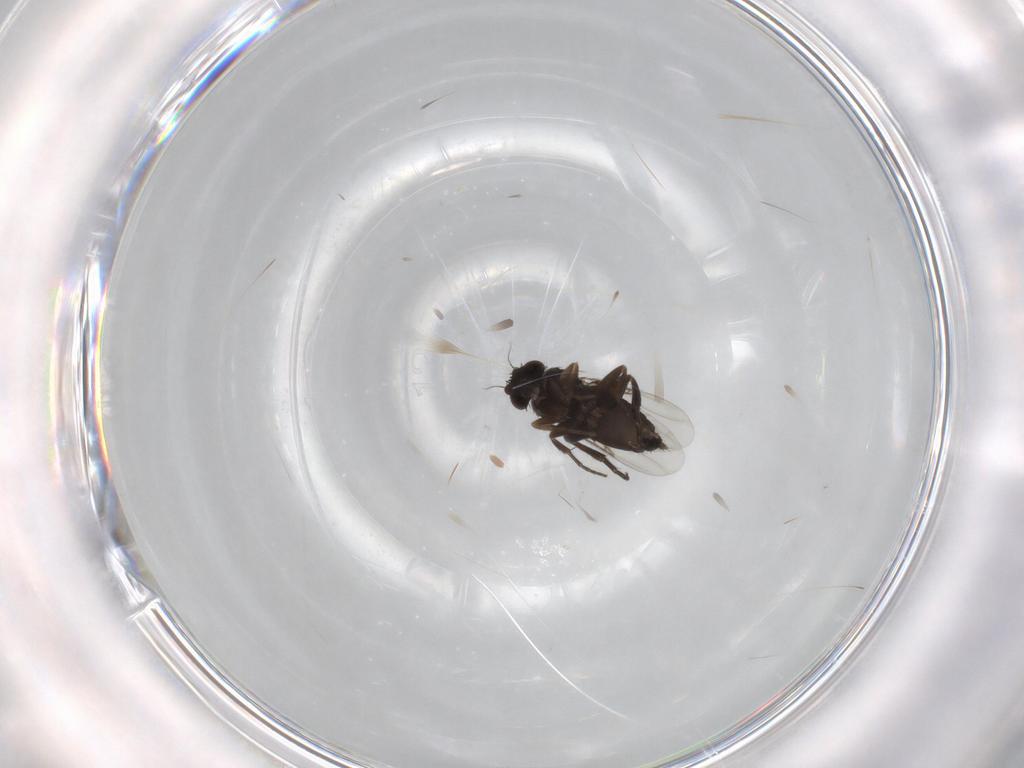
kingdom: Animalia
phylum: Arthropoda
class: Insecta
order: Diptera
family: Phoridae
